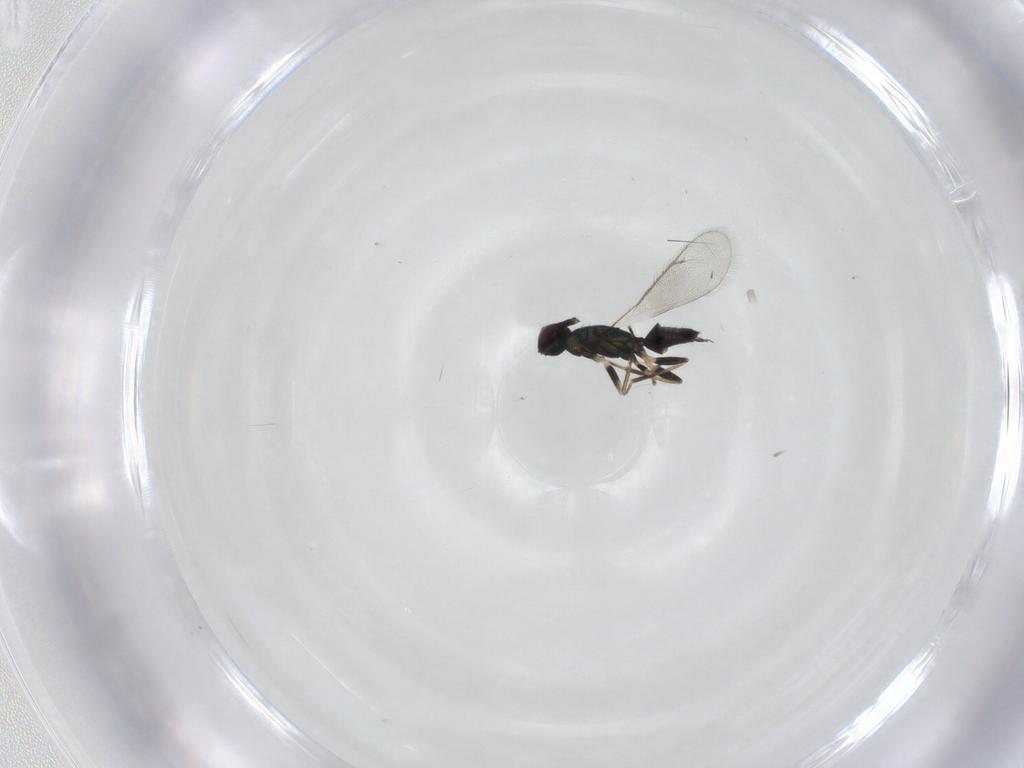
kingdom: Animalia
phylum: Arthropoda
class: Insecta
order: Hymenoptera
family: Eulophidae
